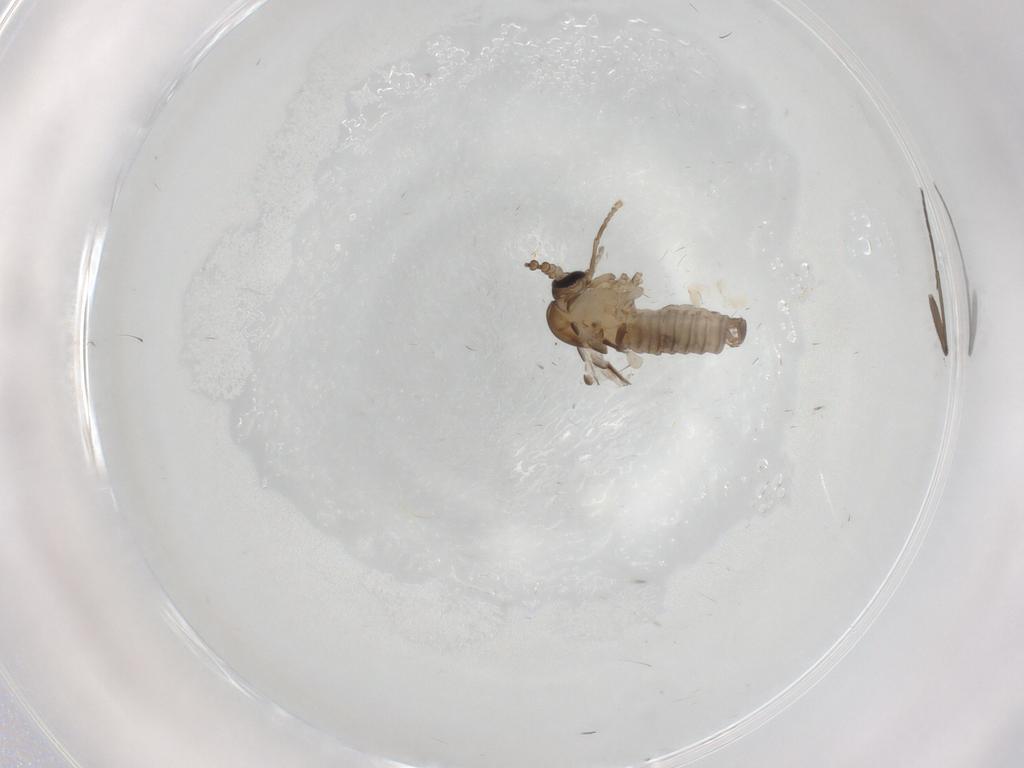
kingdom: Animalia
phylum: Arthropoda
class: Insecta
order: Diptera
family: Psychodidae
